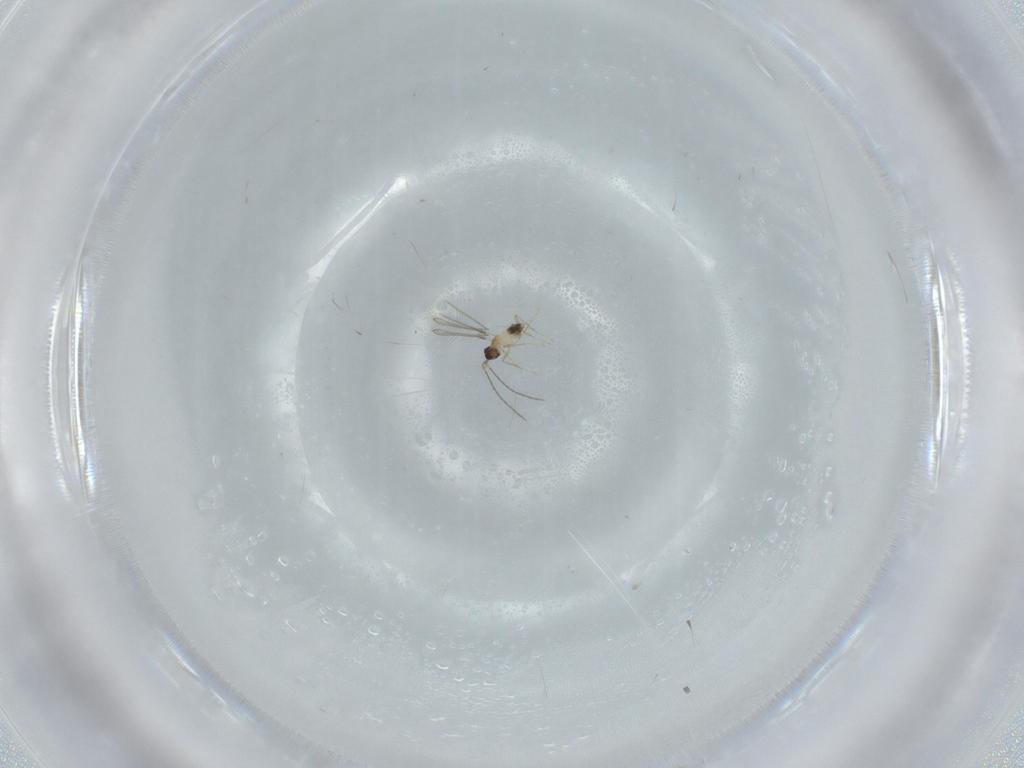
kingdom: Animalia
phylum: Arthropoda
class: Insecta
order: Hymenoptera
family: Mymaridae
